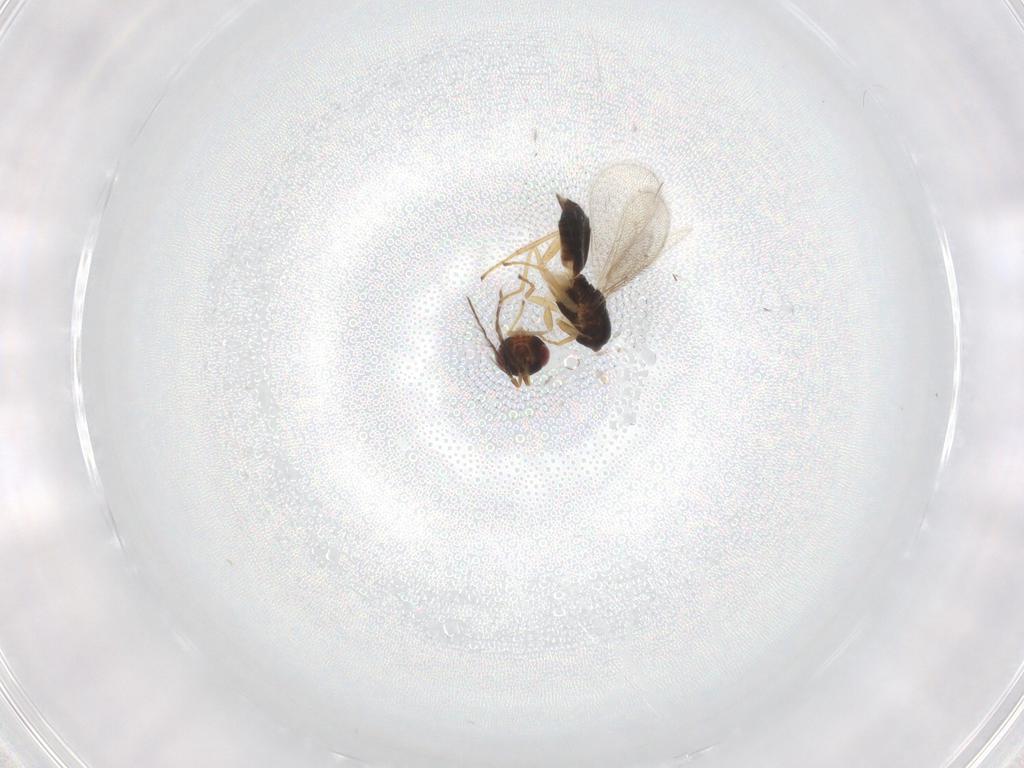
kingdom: Animalia
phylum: Arthropoda
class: Insecta
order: Hymenoptera
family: Eulophidae
